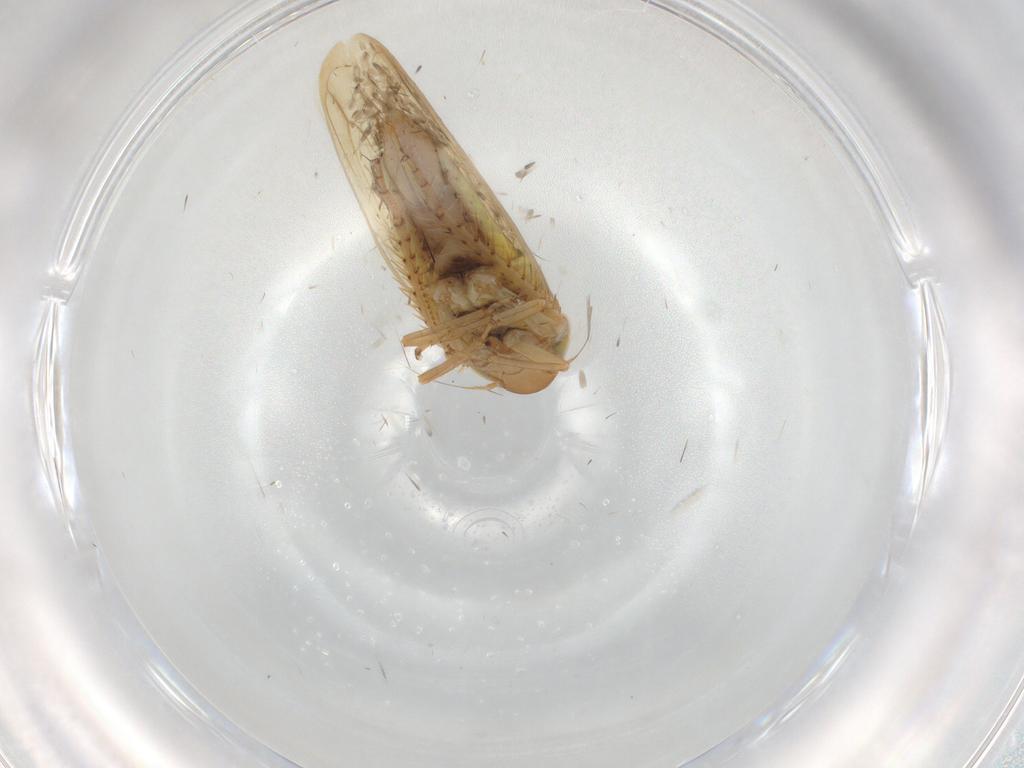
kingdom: Animalia
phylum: Arthropoda
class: Insecta
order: Hemiptera
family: Cicadellidae
